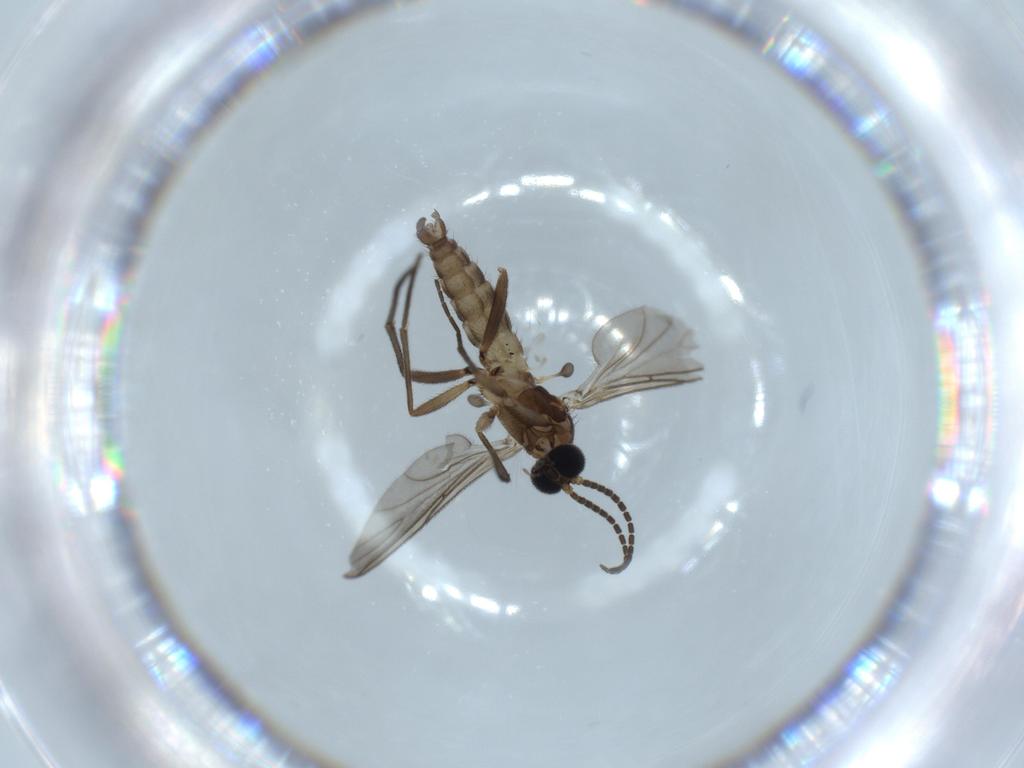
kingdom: Animalia
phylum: Arthropoda
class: Insecta
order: Diptera
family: Sciaridae
